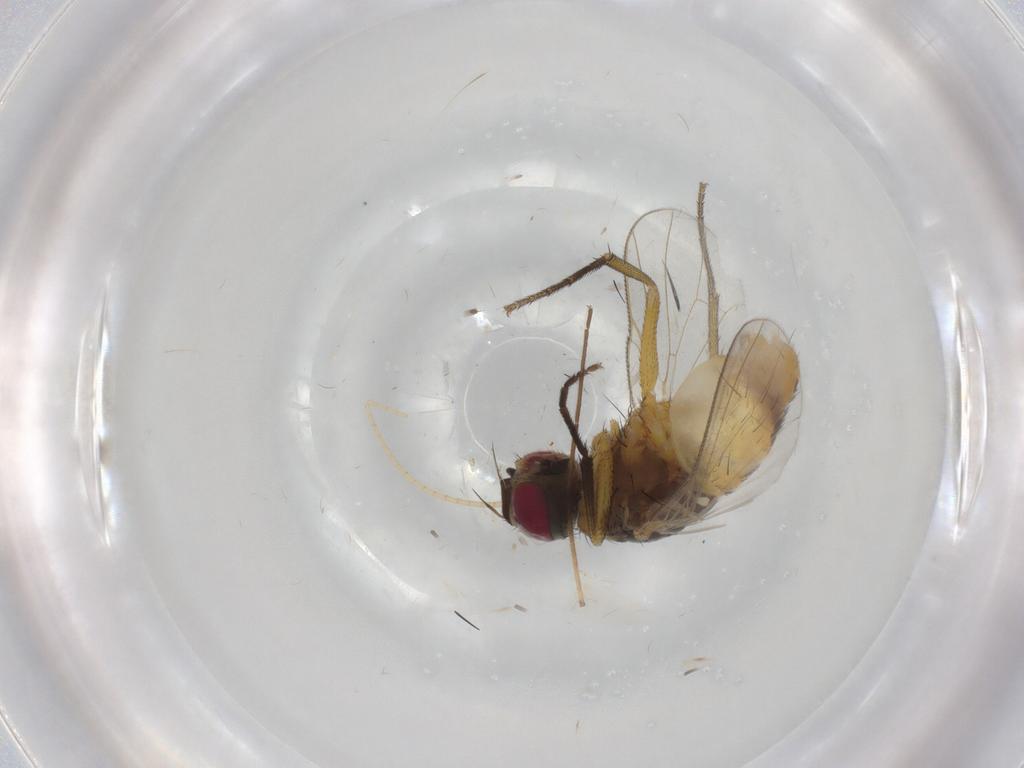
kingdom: Animalia
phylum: Arthropoda
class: Insecta
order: Diptera
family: Muscidae
